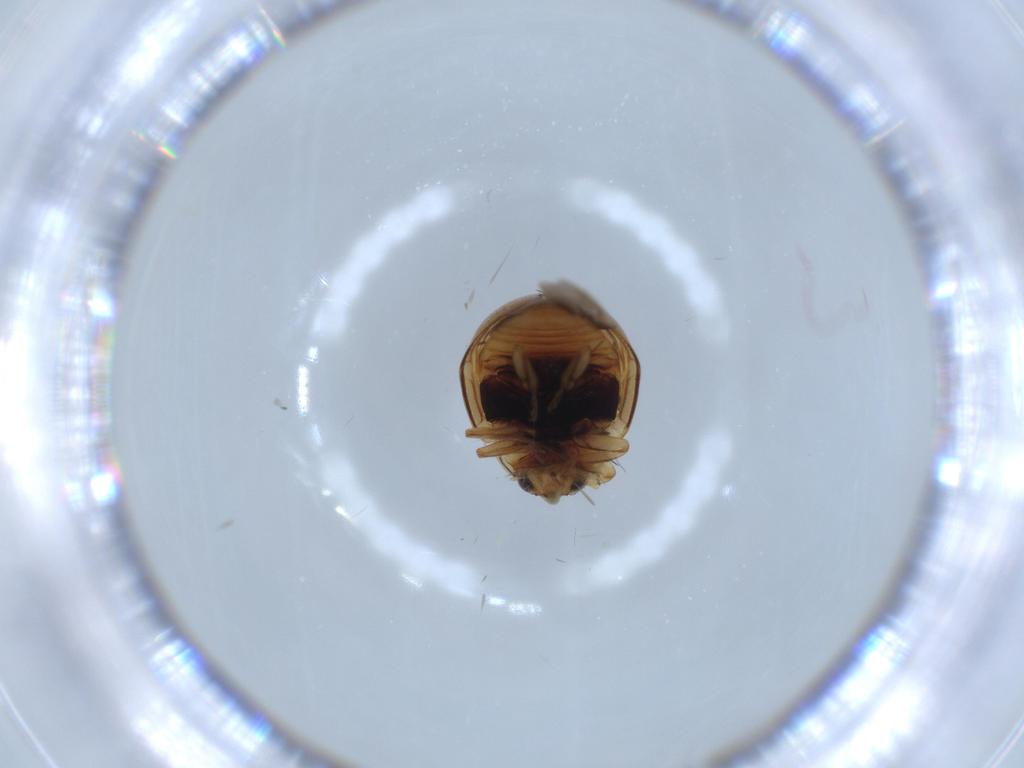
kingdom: Animalia
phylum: Arthropoda
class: Insecta
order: Coleoptera
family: Coccinellidae
